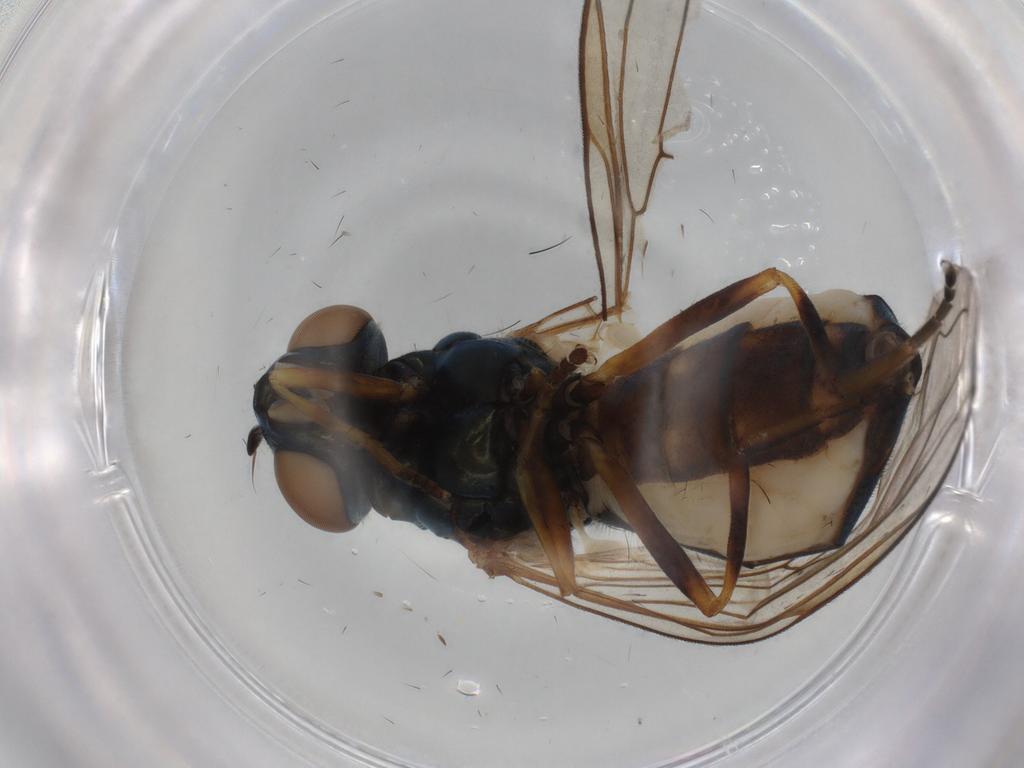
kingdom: Animalia
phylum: Arthropoda
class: Insecta
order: Diptera
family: Syrphidae
